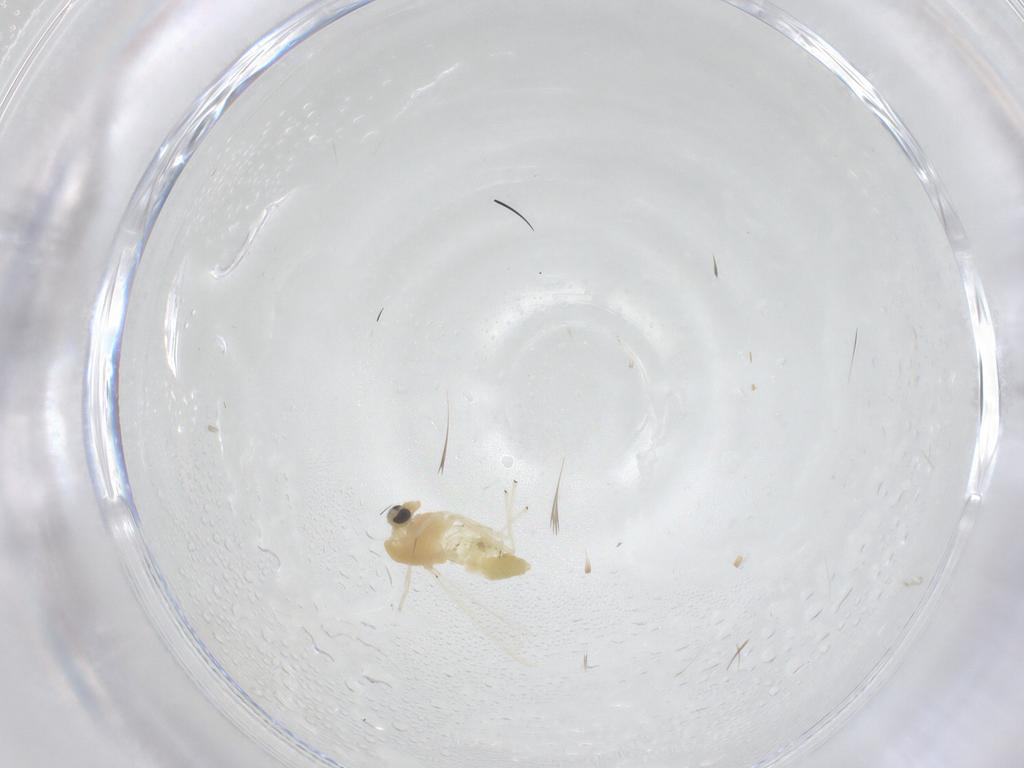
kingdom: Animalia
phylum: Arthropoda
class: Insecta
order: Diptera
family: Chironomidae
